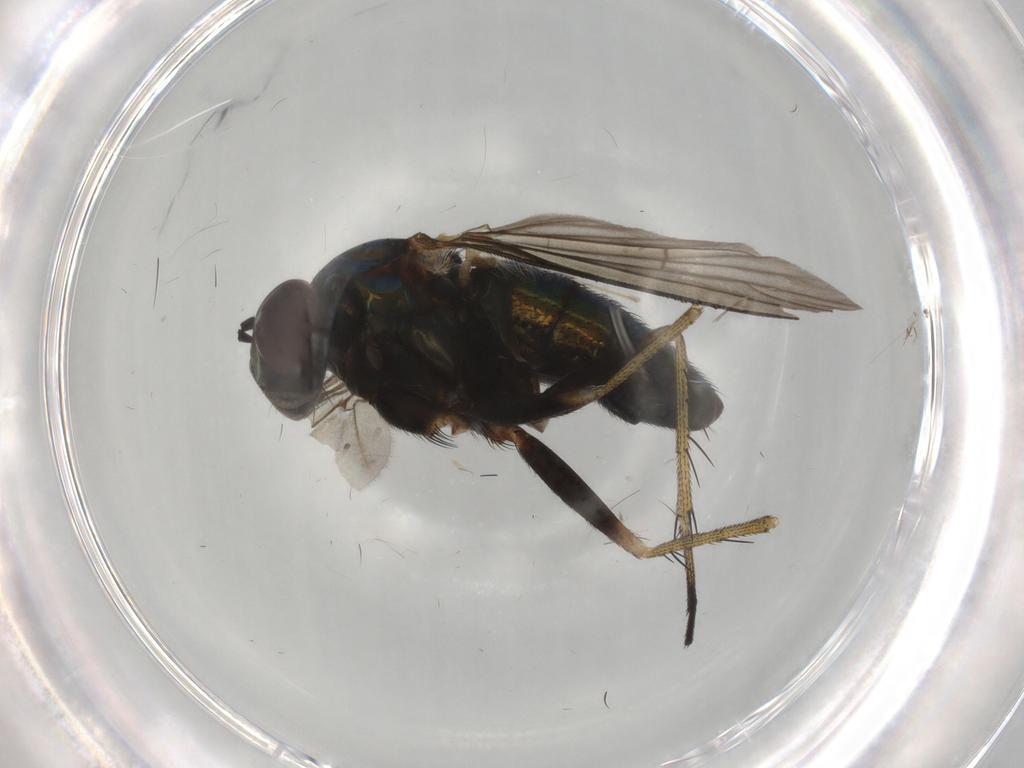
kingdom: Animalia
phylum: Arthropoda
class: Insecta
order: Diptera
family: Dolichopodidae
